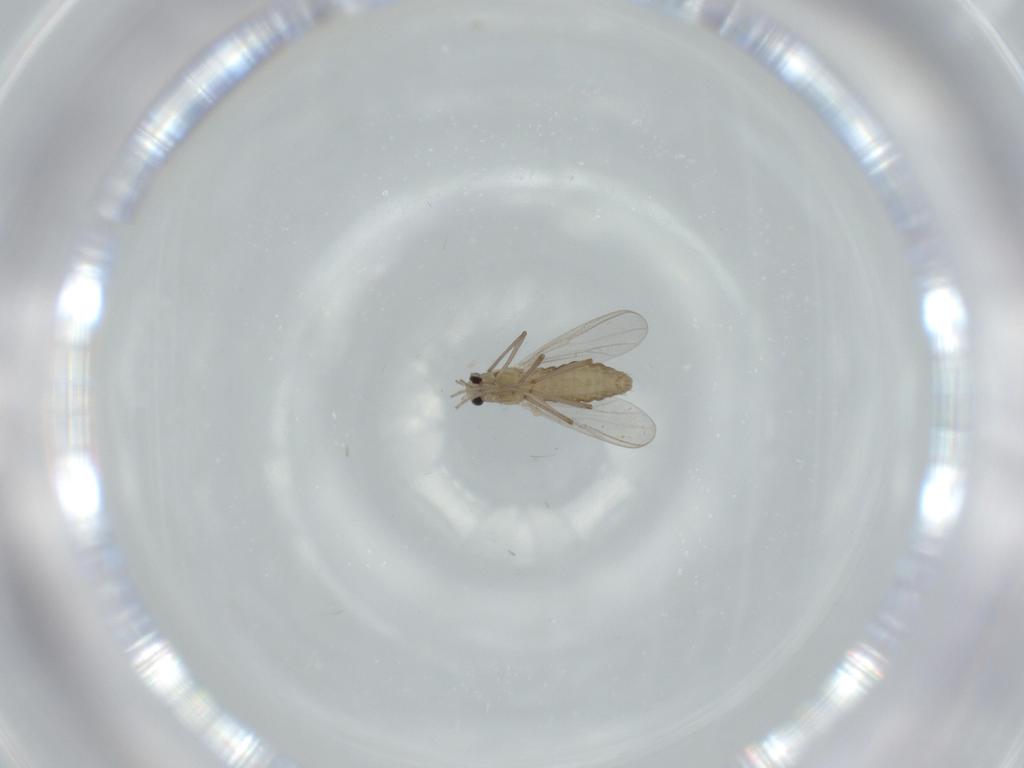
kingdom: Animalia
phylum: Arthropoda
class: Insecta
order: Diptera
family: Chironomidae
